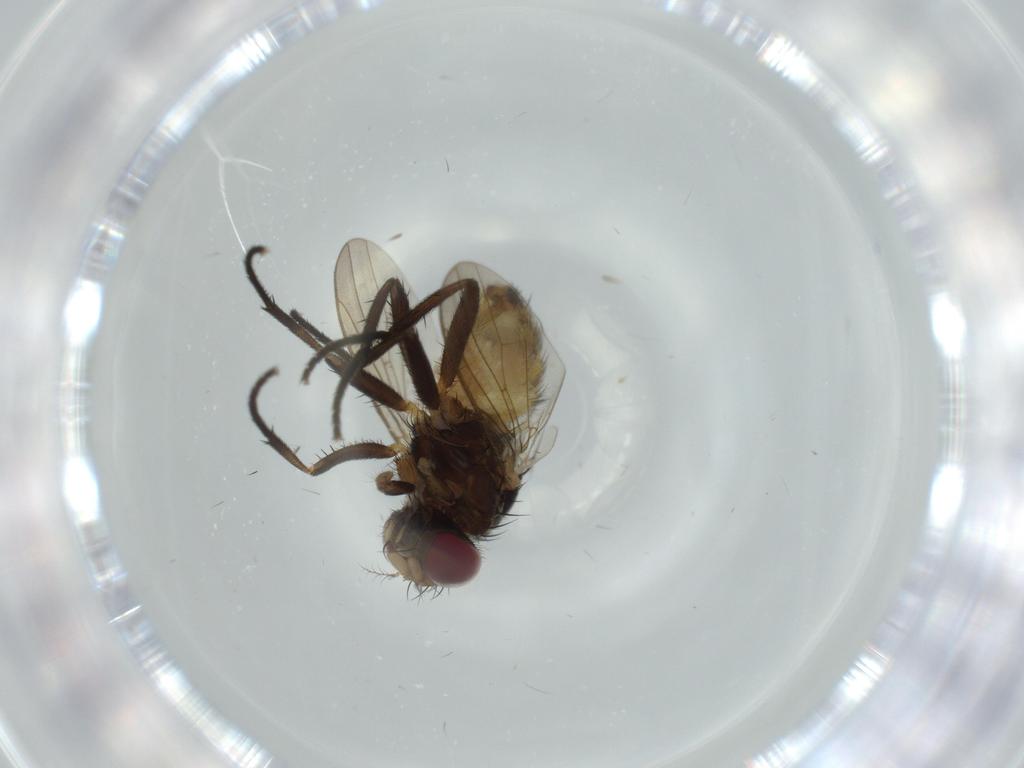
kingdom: Animalia
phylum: Arthropoda
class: Insecta
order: Diptera
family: Anthomyiidae
